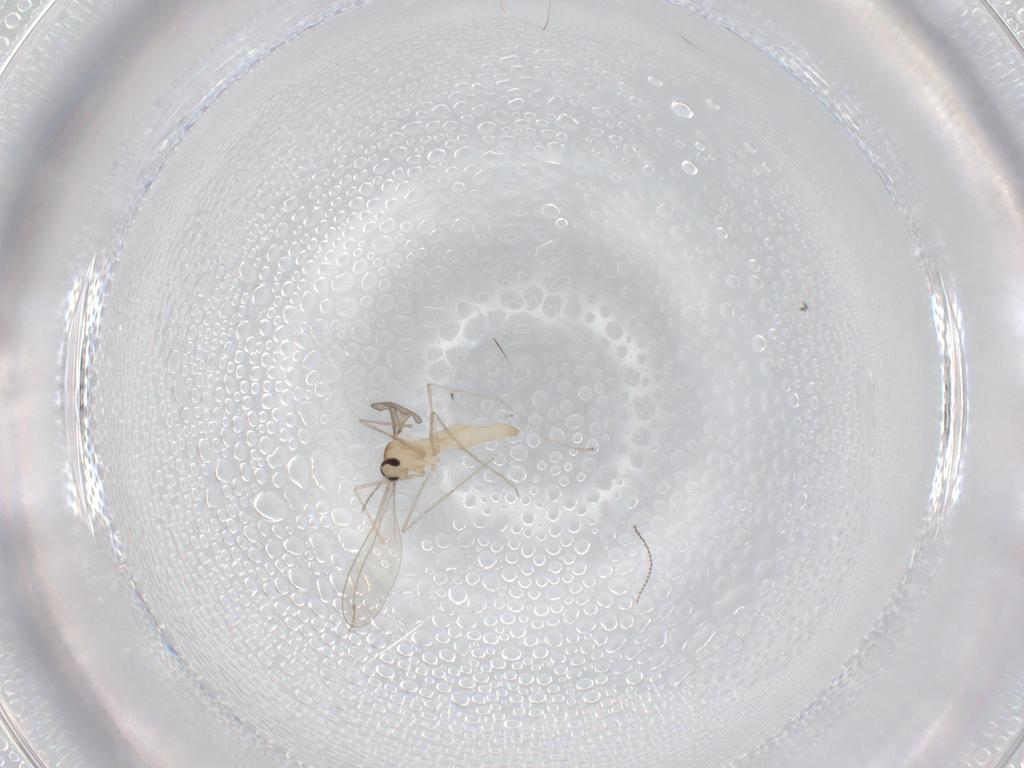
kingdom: Animalia
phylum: Arthropoda
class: Insecta
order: Diptera
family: Cecidomyiidae
